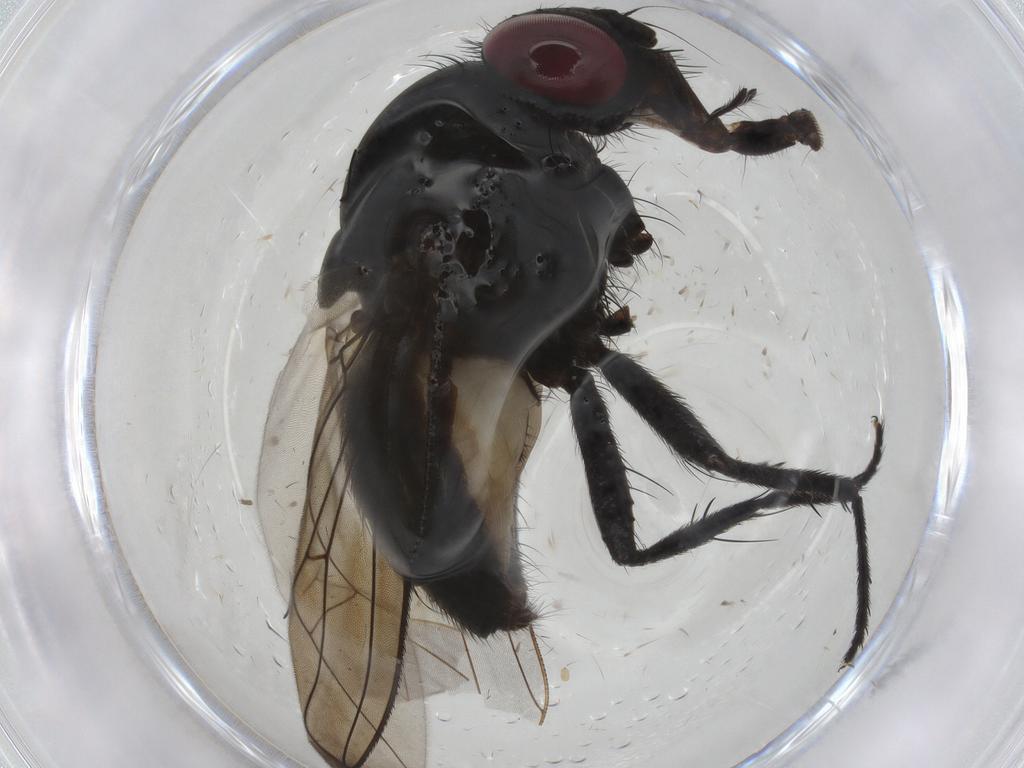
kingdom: Animalia
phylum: Arthropoda
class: Insecta
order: Diptera
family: Fannia
